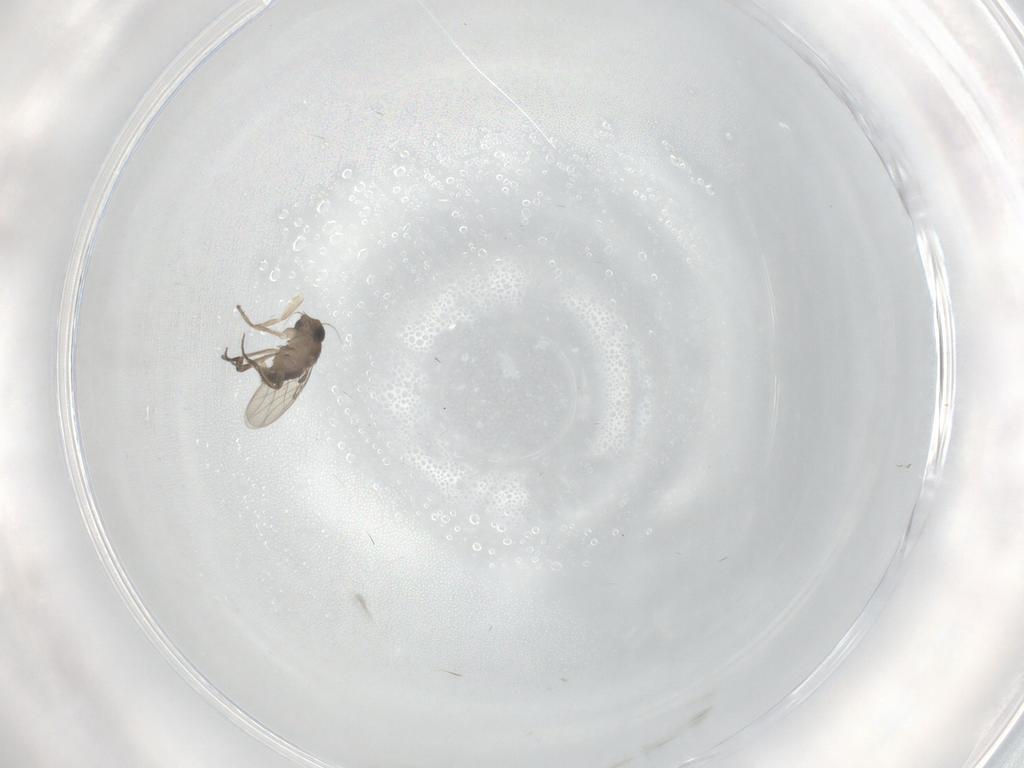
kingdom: Animalia
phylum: Arthropoda
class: Insecta
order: Diptera
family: Phoridae
